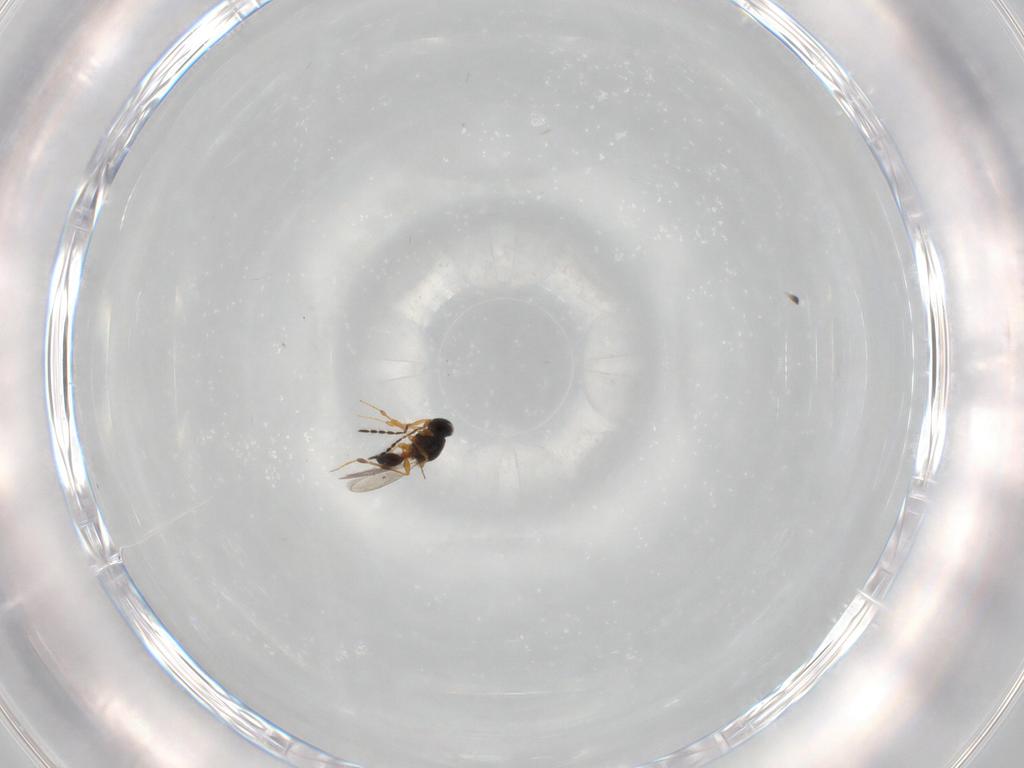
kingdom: Animalia
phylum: Arthropoda
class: Insecta
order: Hymenoptera
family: Platygastridae
